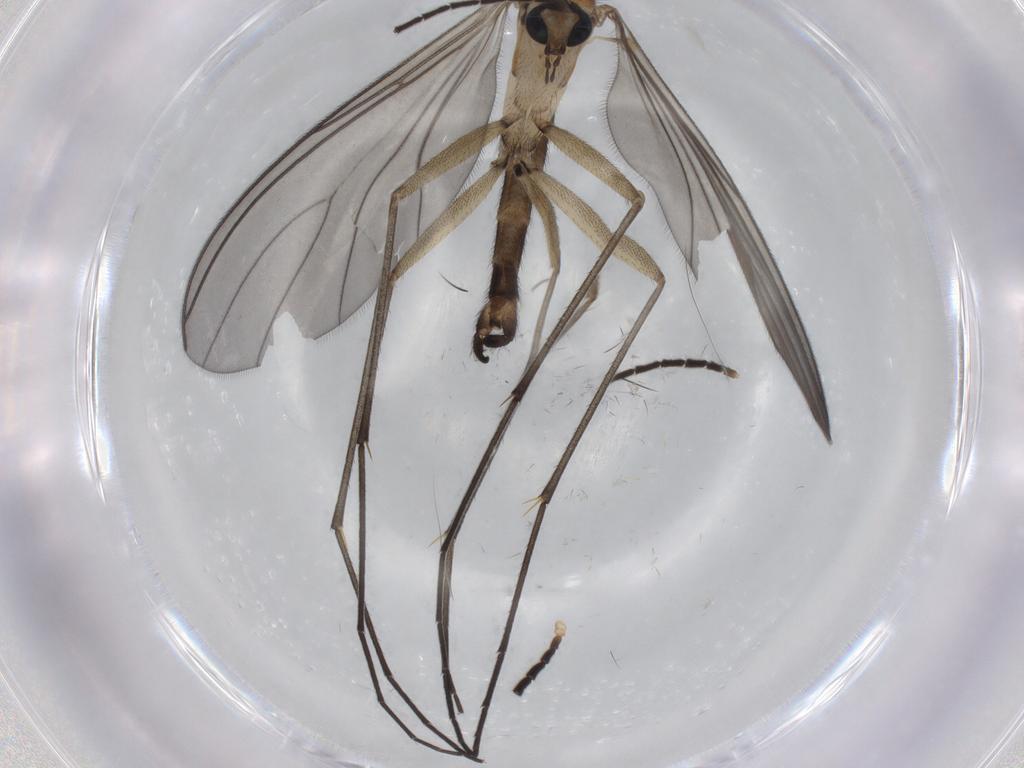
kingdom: Animalia
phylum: Arthropoda
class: Insecta
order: Diptera
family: Sciaridae
